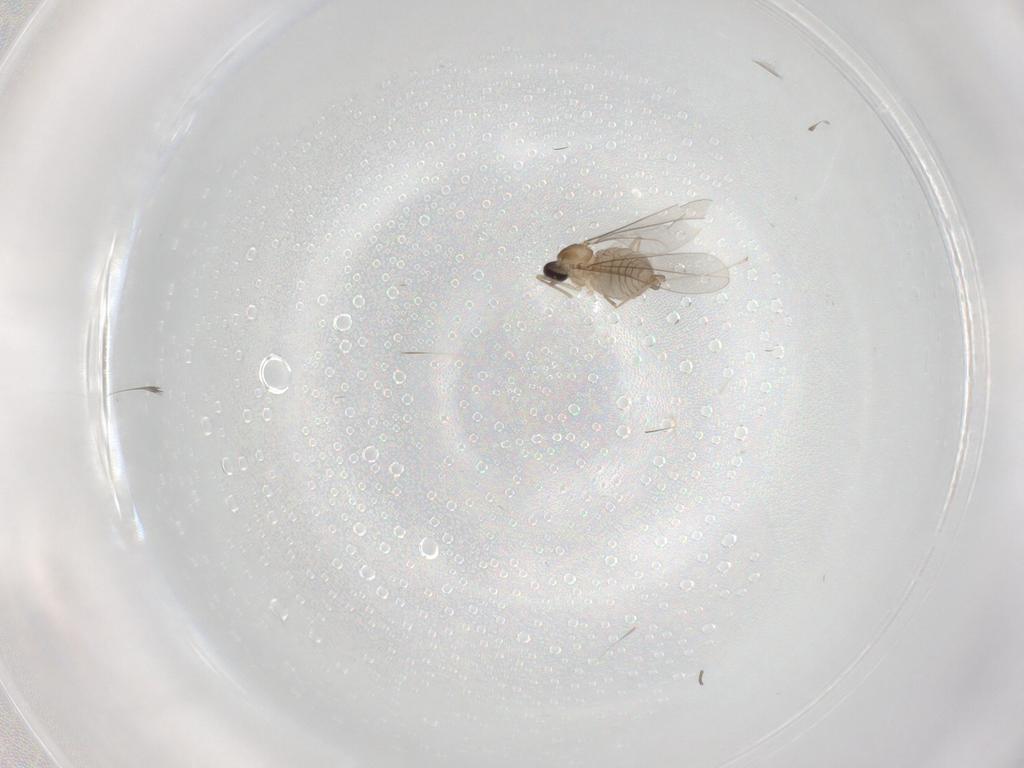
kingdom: Animalia
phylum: Arthropoda
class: Insecta
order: Diptera
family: Cecidomyiidae
